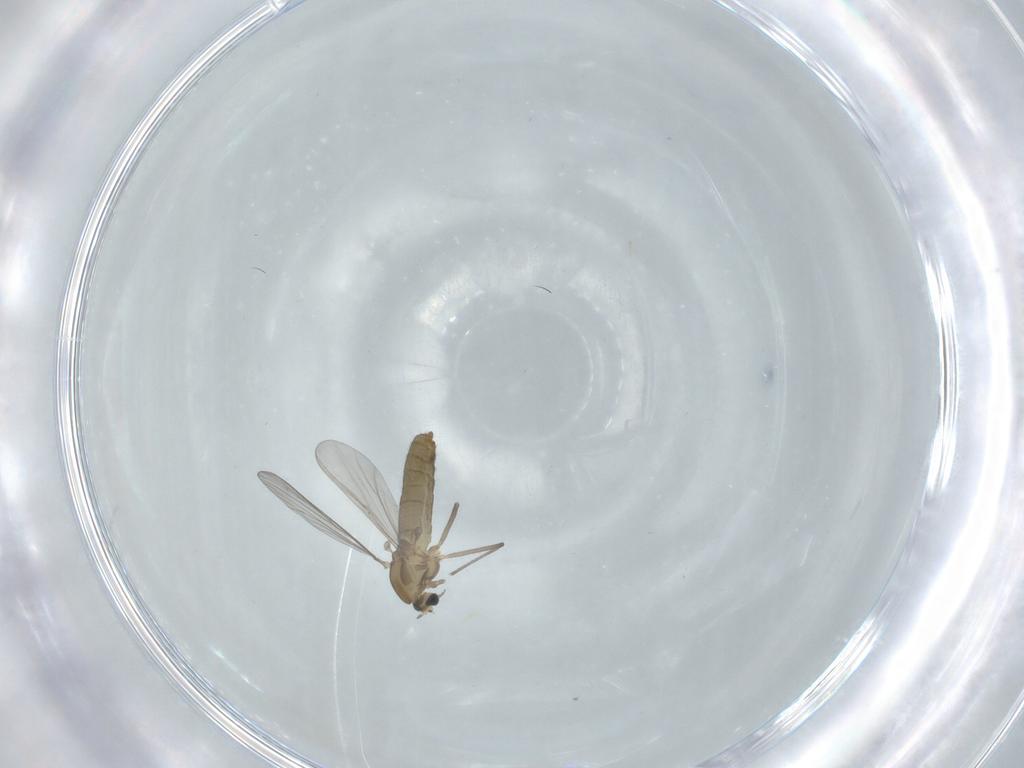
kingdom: Animalia
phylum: Arthropoda
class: Insecta
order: Diptera
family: Chironomidae
